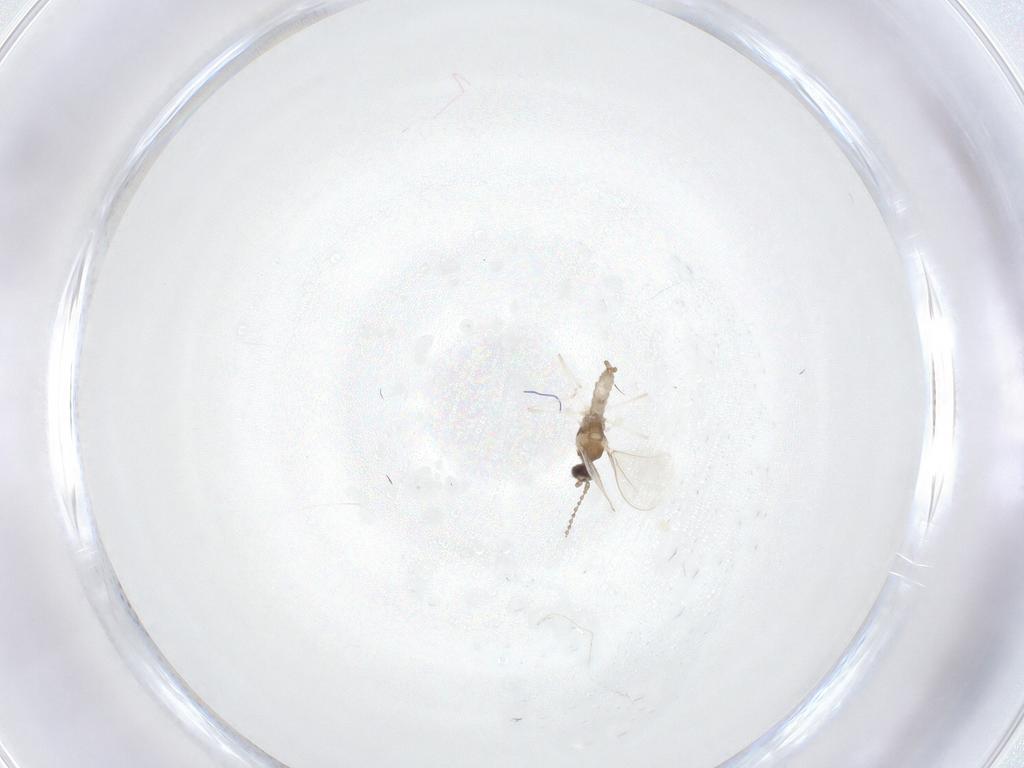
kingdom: Animalia
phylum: Arthropoda
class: Insecta
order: Diptera
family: Cecidomyiidae
